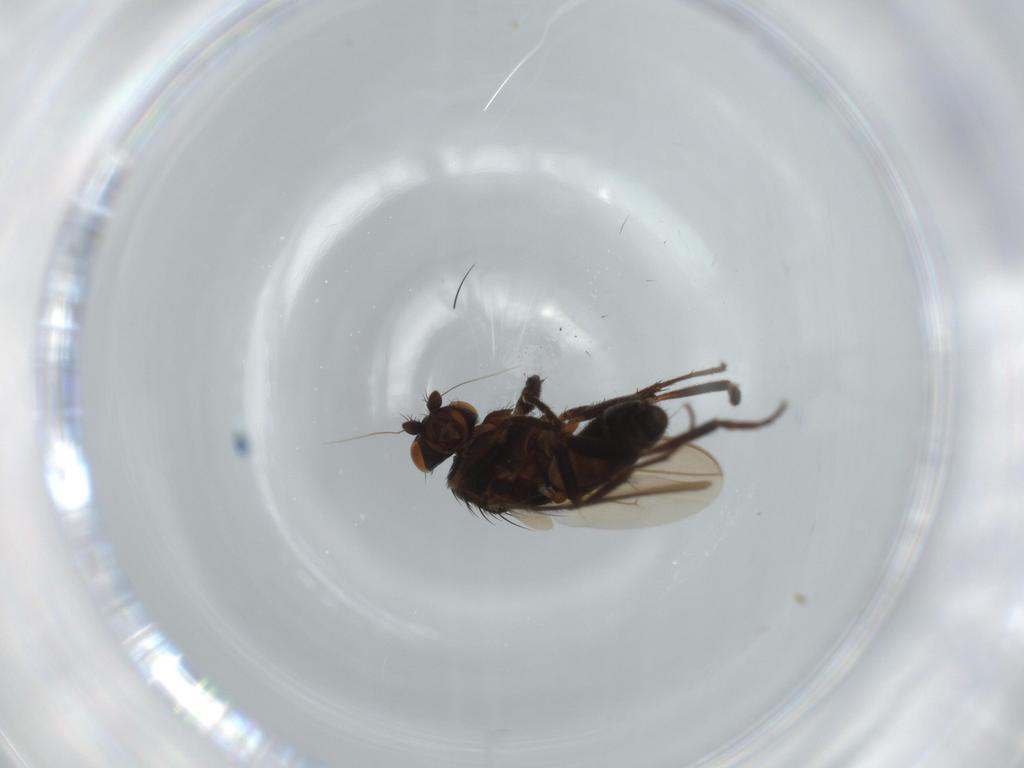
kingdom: Animalia
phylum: Arthropoda
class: Insecta
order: Diptera
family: Sphaeroceridae
